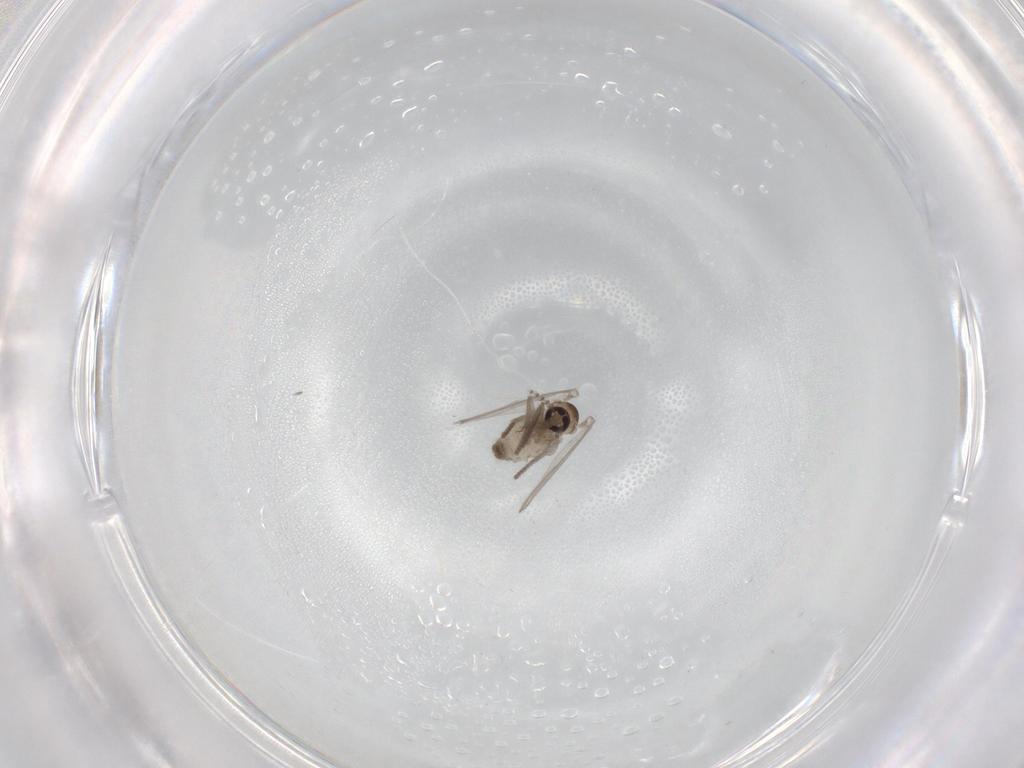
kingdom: Animalia
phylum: Arthropoda
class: Insecta
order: Diptera
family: Psychodidae
